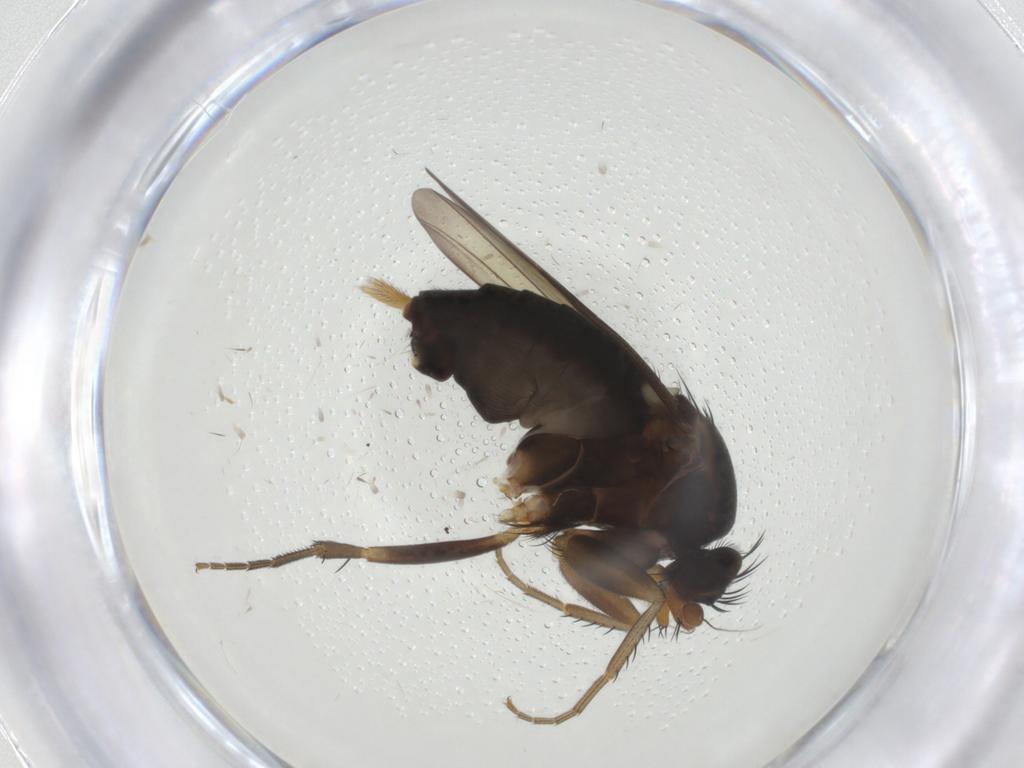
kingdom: Animalia
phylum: Arthropoda
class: Insecta
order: Diptera
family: Phoridae
